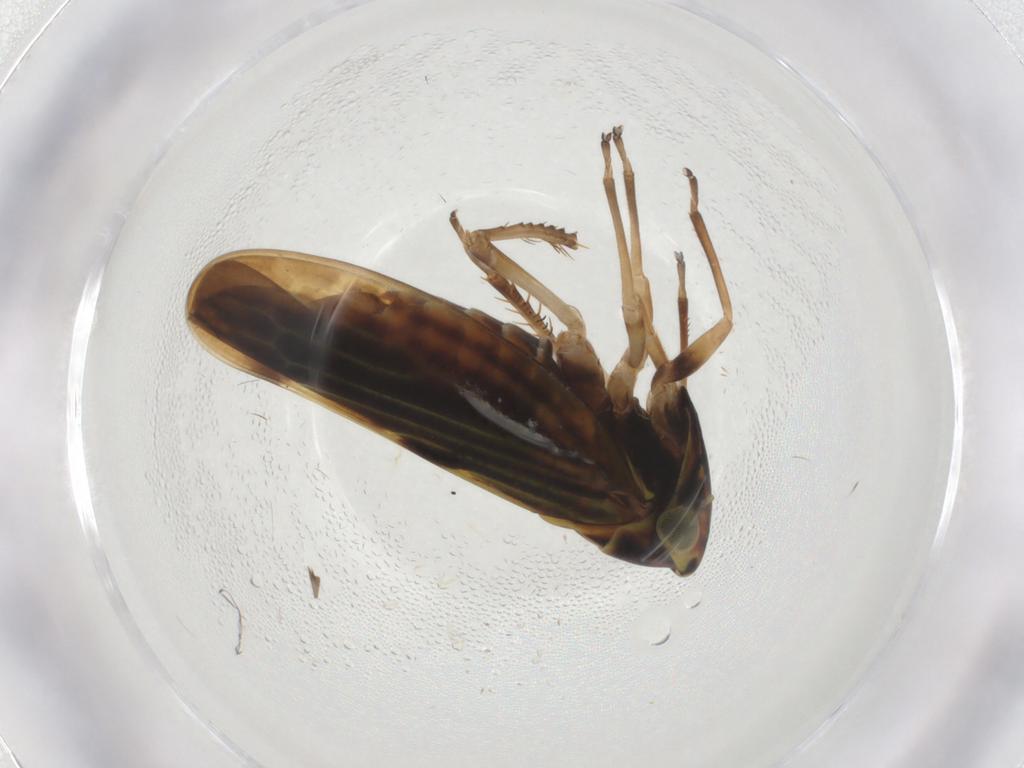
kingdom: Animalia
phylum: Arthropoda
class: Insecta
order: Hemiptera
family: Cicadellidae
